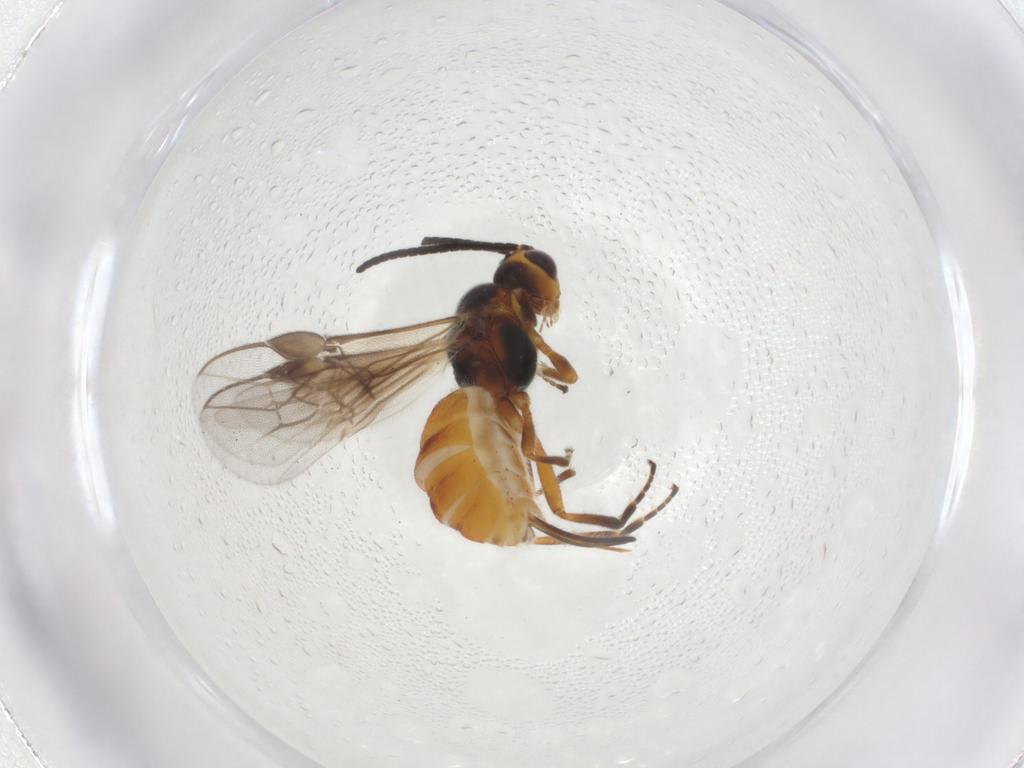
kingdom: Animalia
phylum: Arthropoda
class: Insecta
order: Hymenoptera
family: Braconidae
